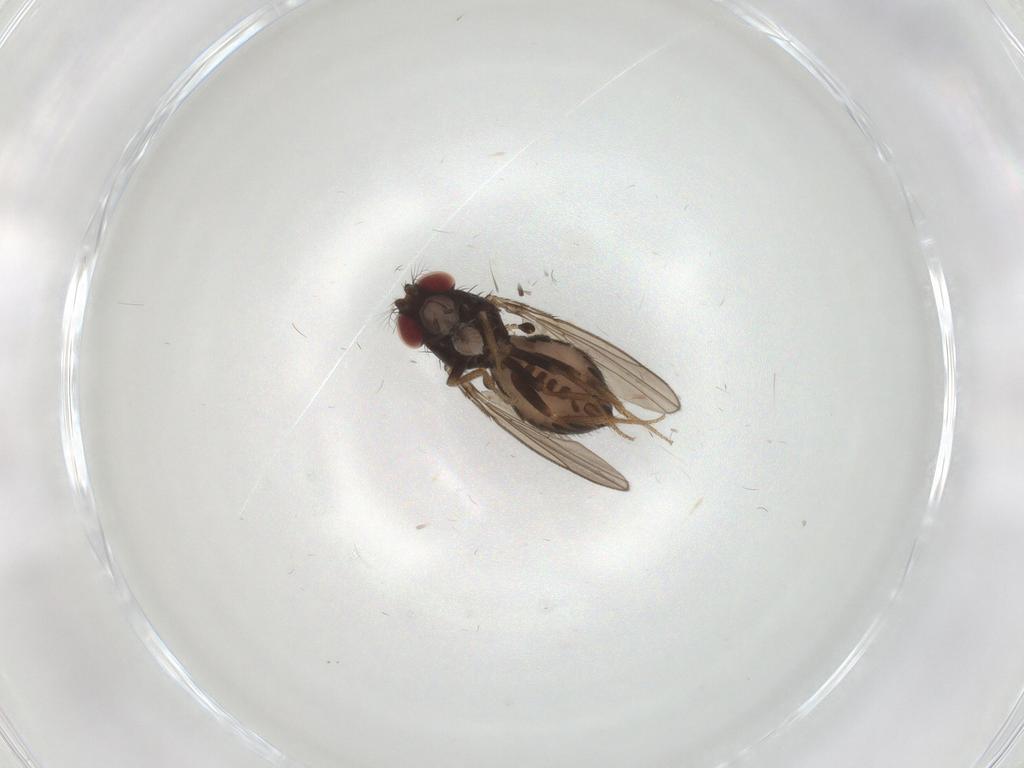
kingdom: Animalia
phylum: Arthropoda
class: Insecta
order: Diptera
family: Drosophilidae
